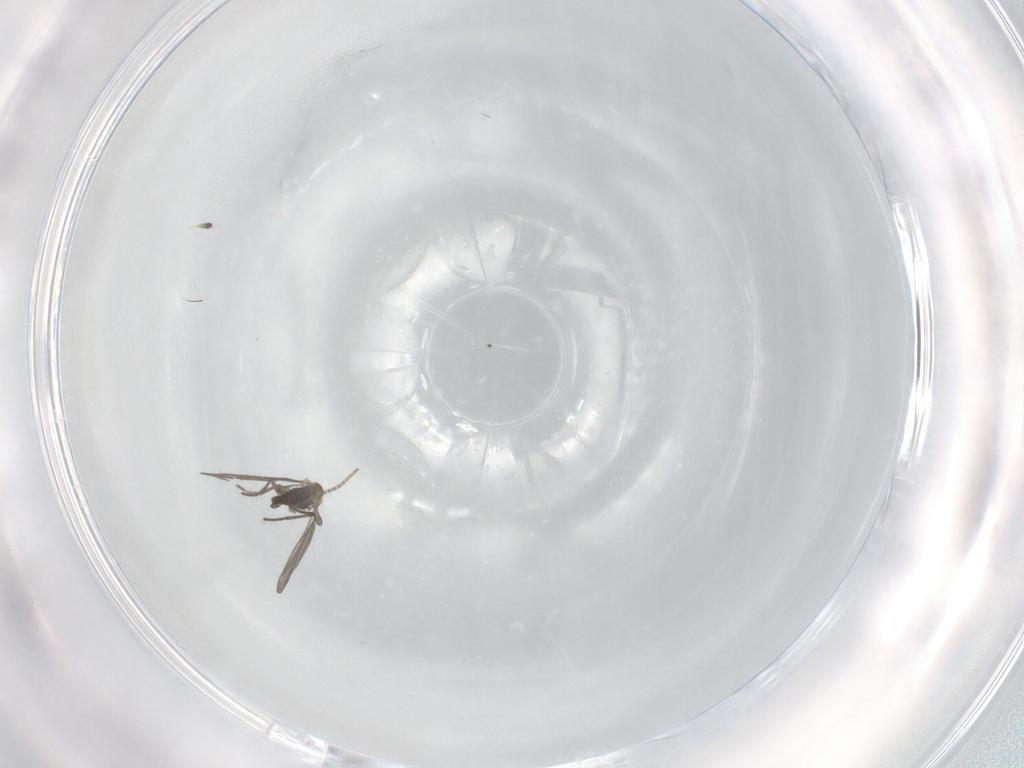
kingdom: Animalia
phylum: Arthropoda
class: Insecta
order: Diptera
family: Sciaridae
